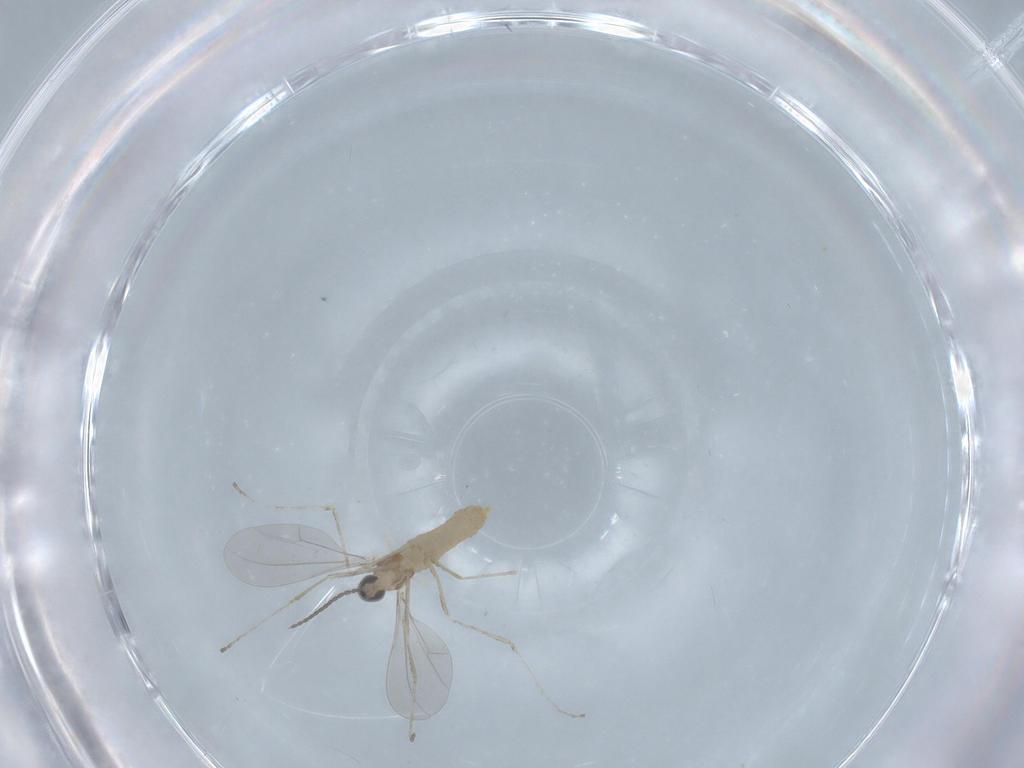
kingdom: Animalia
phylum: Arthropoda
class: Insecta
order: Diptera
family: Cecidomyiidae
